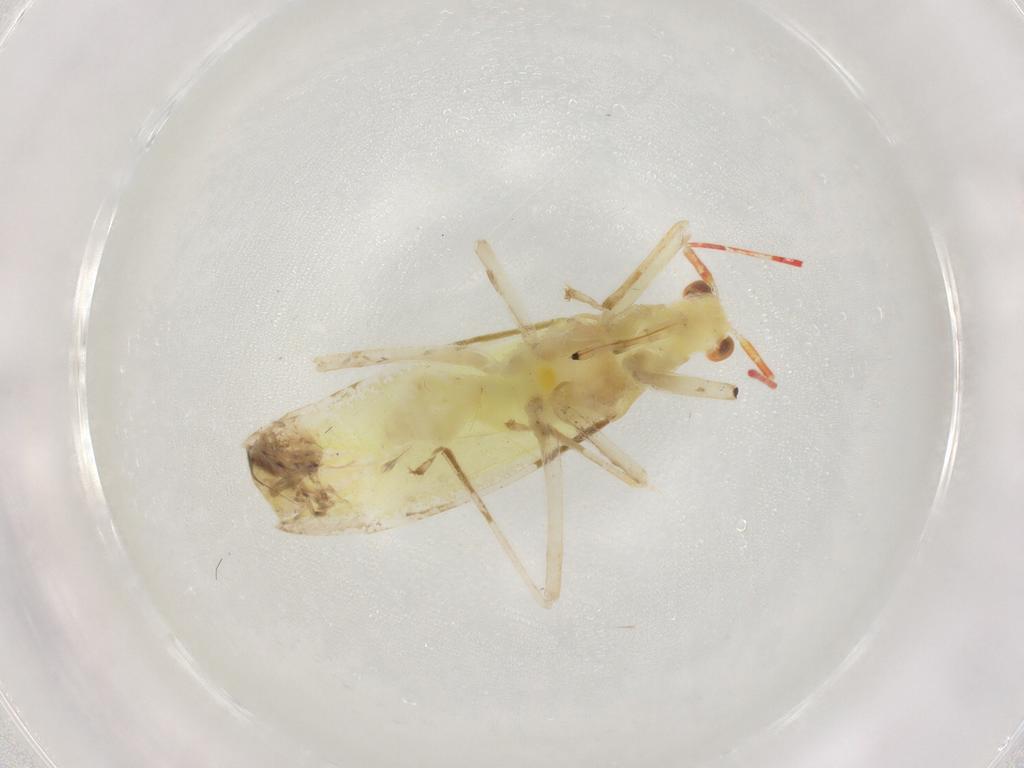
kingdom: Animalia
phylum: Arthropoda
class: Insecta
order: Hemiptera
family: Miridae
